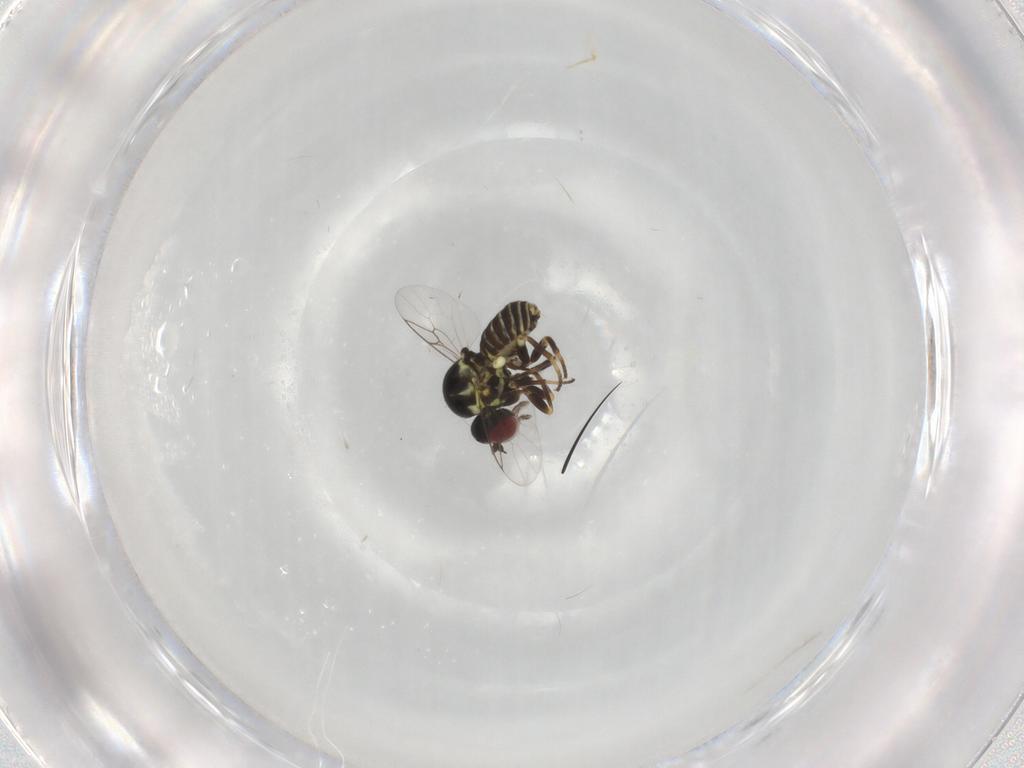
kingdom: Animalia
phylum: Arthropoda
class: Insecta
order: Diptera
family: Mythicomyiidae
